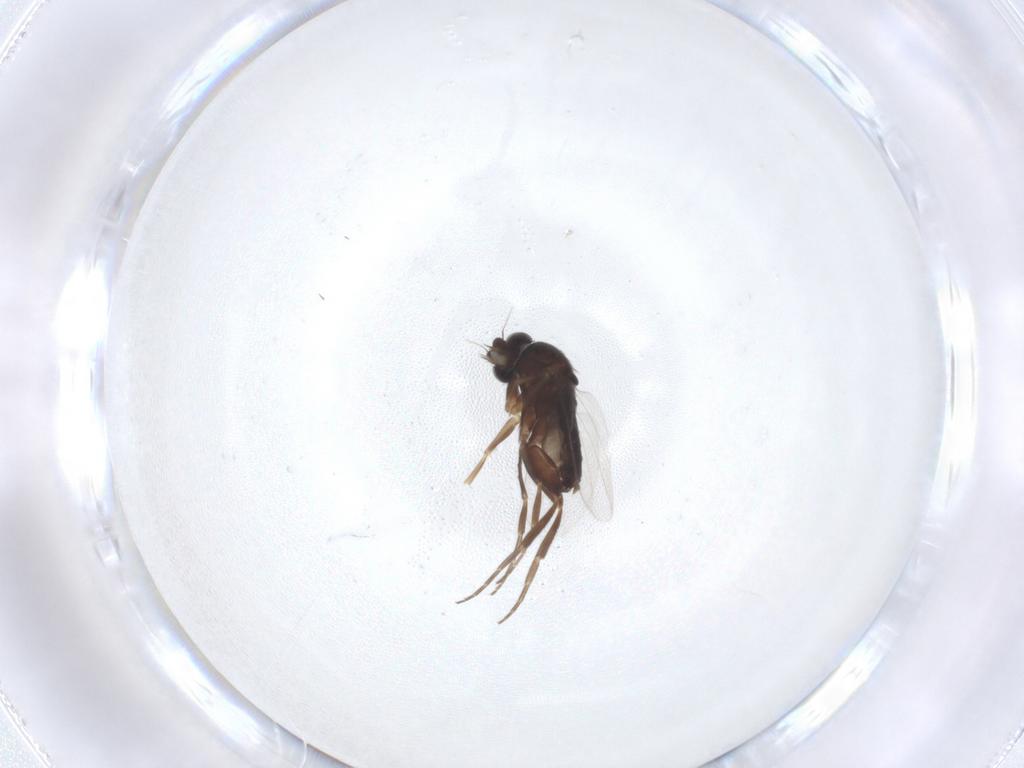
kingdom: Animalia
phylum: Arthropoda
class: Insecta
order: Diptera
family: Phoridae
